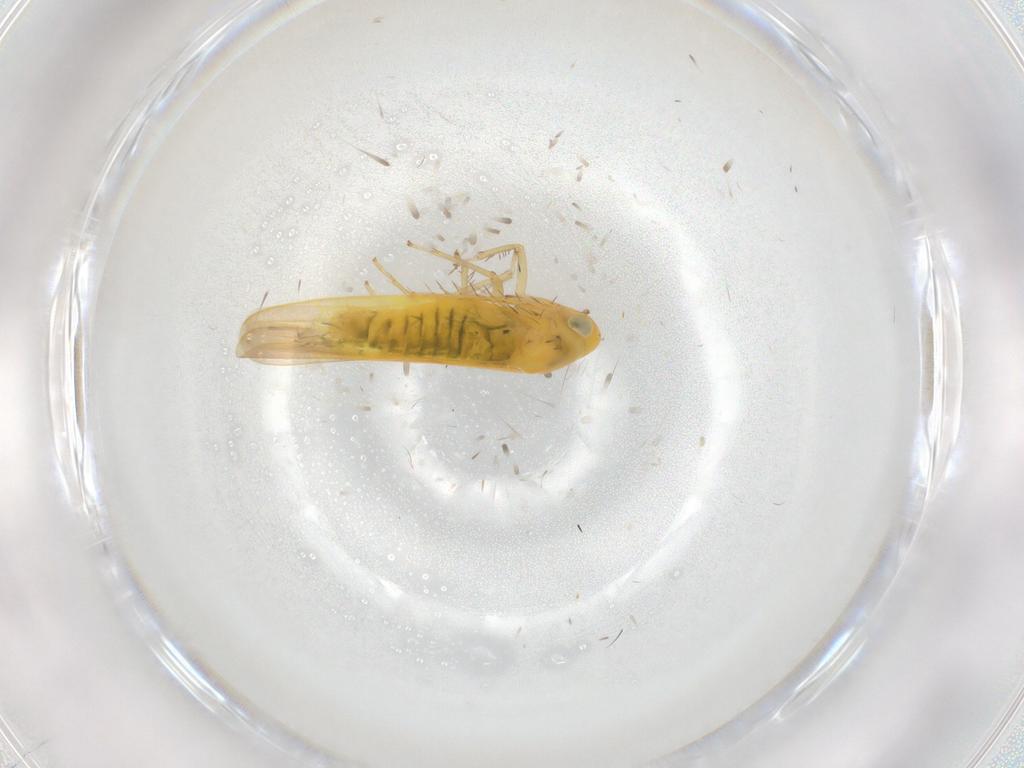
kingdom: Animalia
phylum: Arthropoda
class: Insecta
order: Hemiptera
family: Cicadellidae
